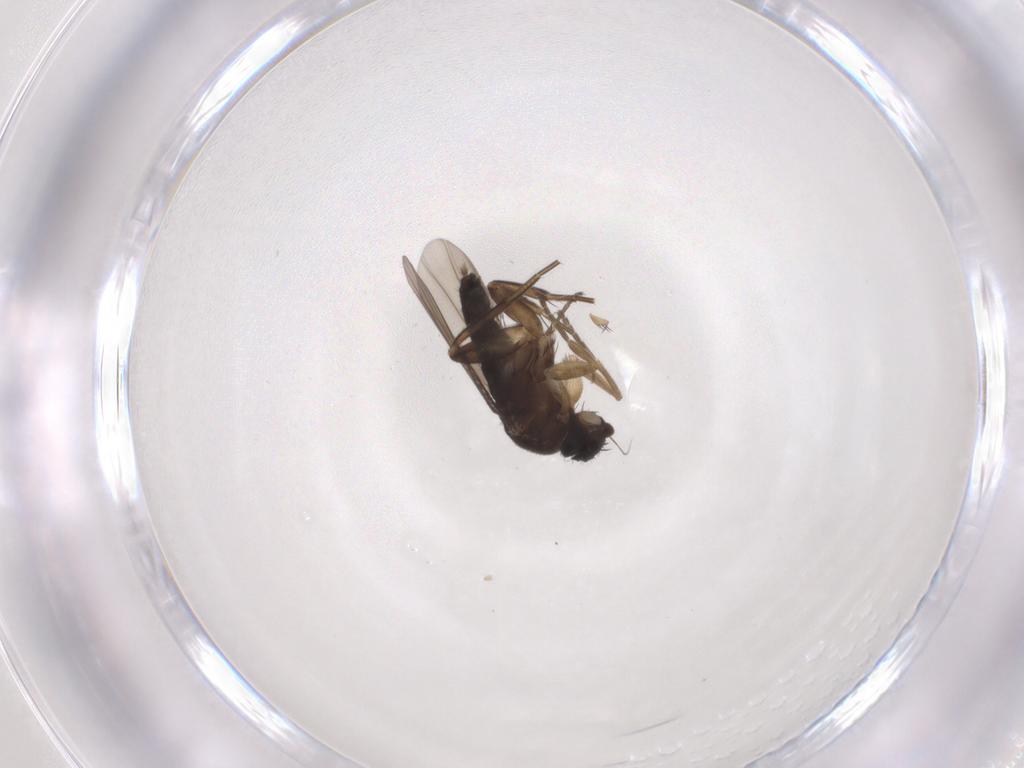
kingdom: Animalia
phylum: Arthropoda
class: Insecta
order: Diptera
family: Phoridae
